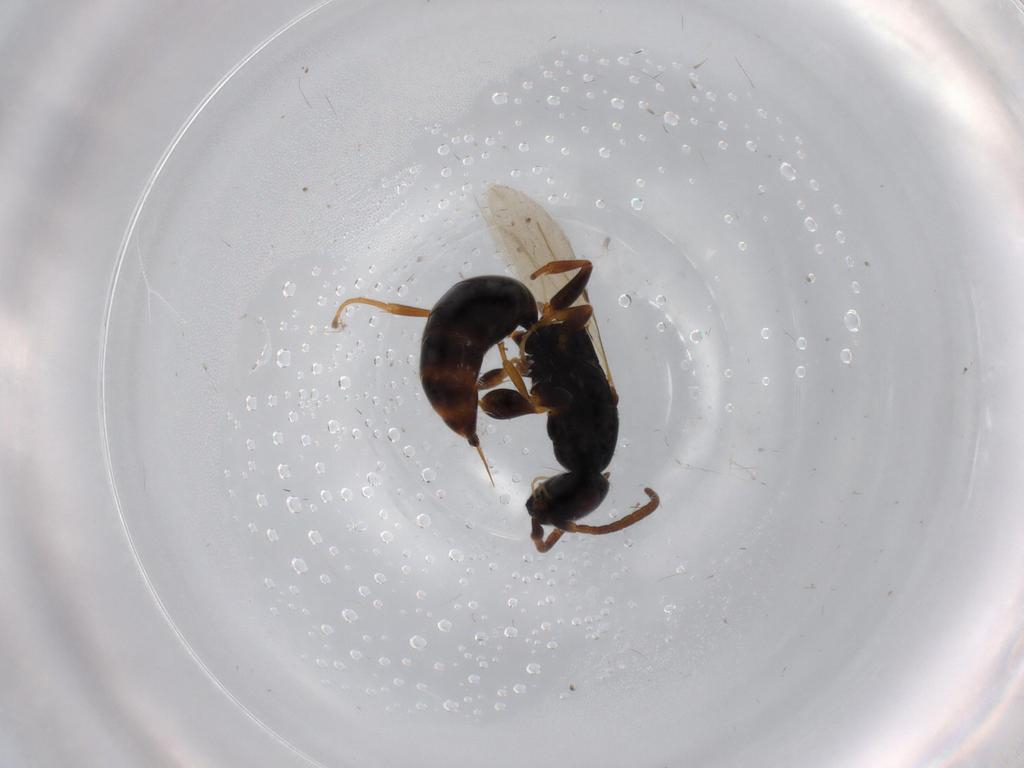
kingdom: Animalia
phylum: Arthropoda
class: Insecta
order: Hymenoptera
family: Bethylidae
